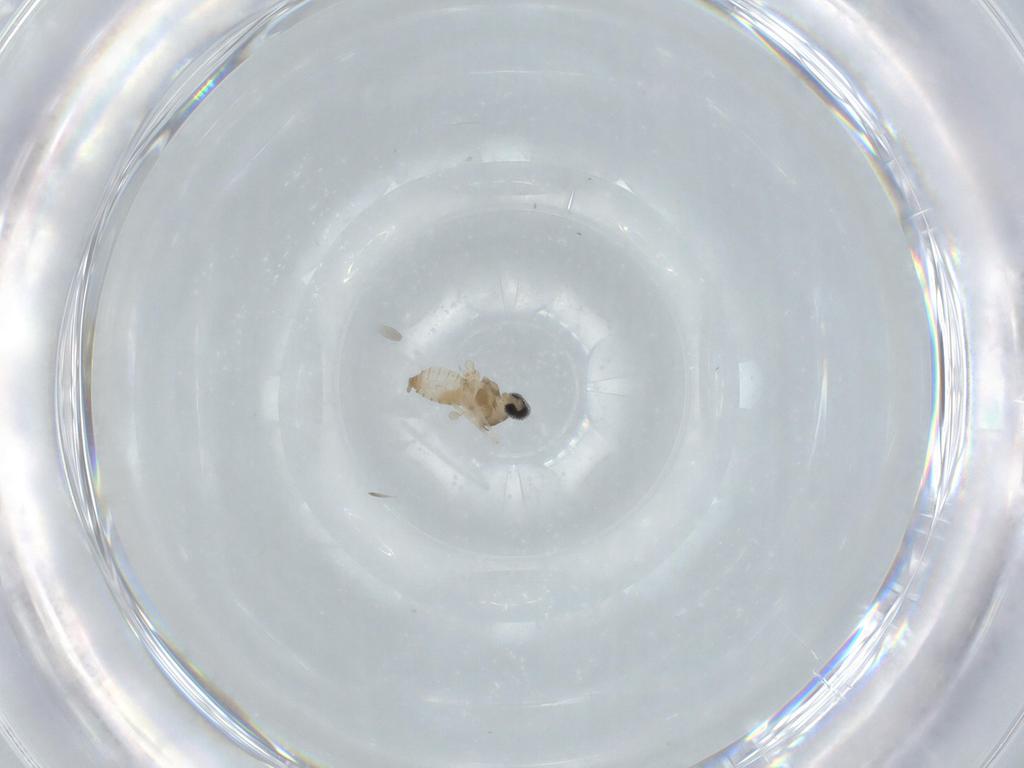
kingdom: Animalia
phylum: Arthropoda
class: Insecta
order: Diptera
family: Cecidomyiidae
